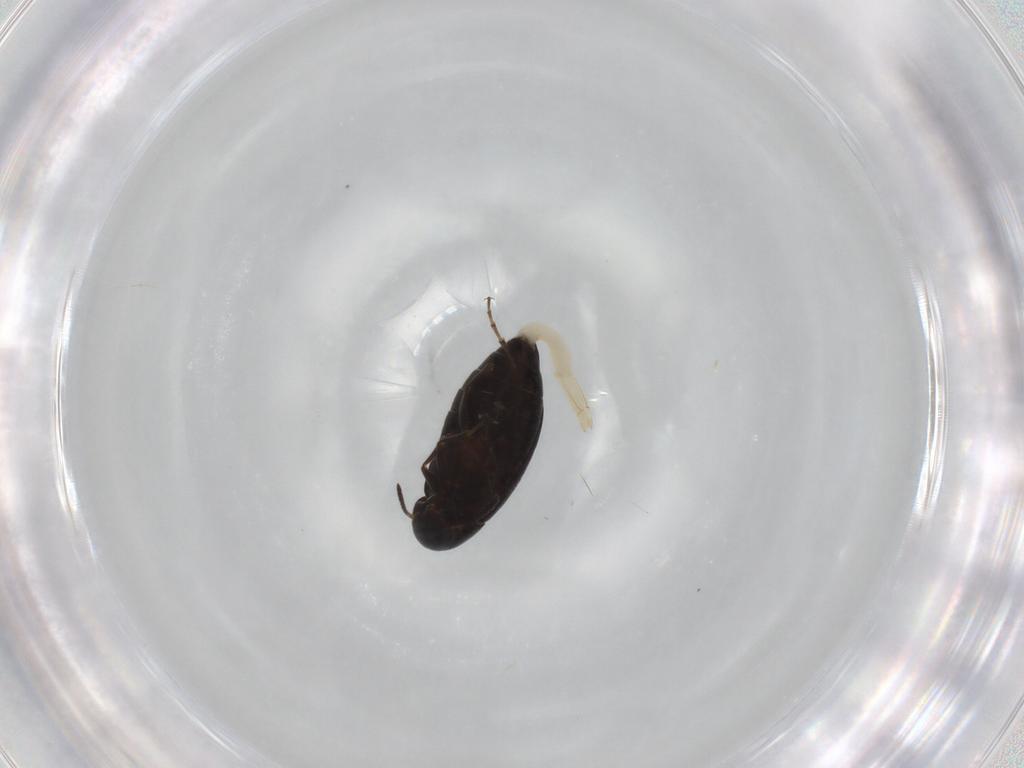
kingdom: Animalia
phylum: Arthropoda
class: Insecta
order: Coleoptera
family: Scraptiidae
